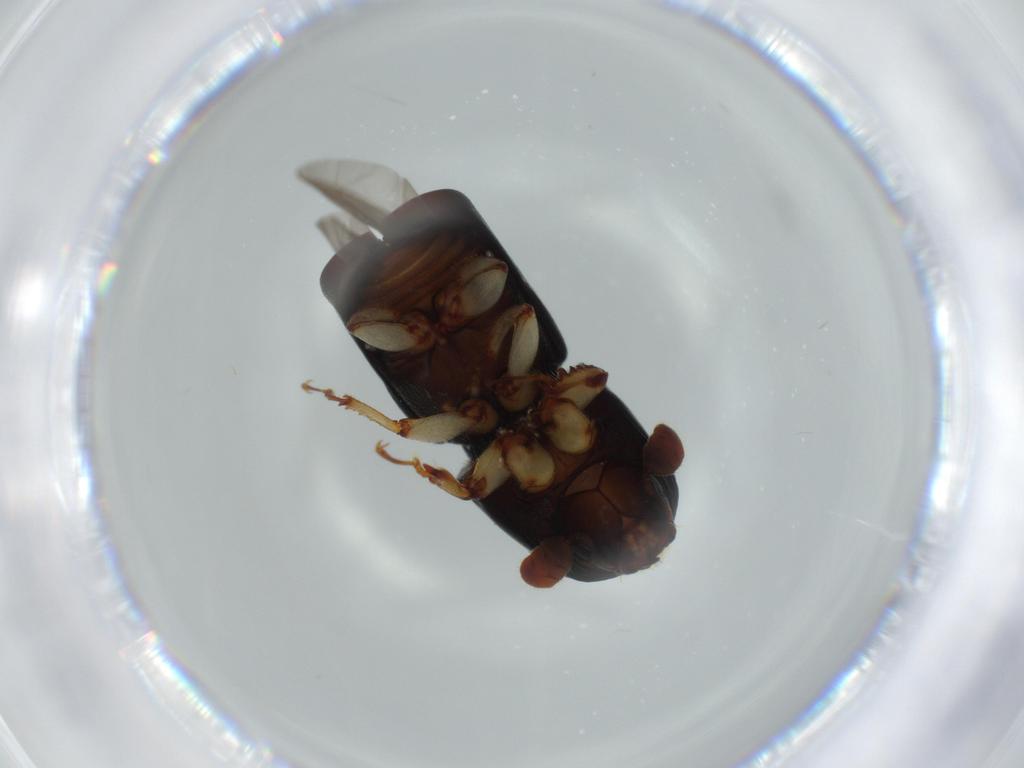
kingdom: Animalia
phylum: Arthropoda
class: Insecta
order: Coleoptera
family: Curculionidae
